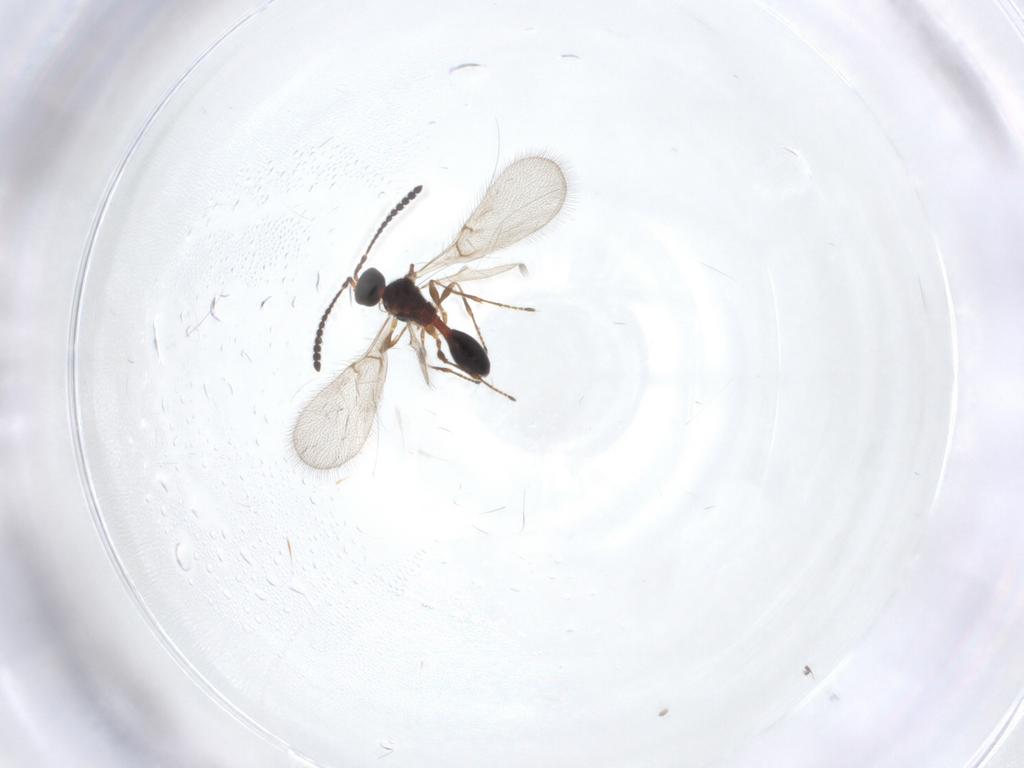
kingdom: Animalia
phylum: Arthropoda
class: Insecta
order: Hymenoptera
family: Diapriidae
